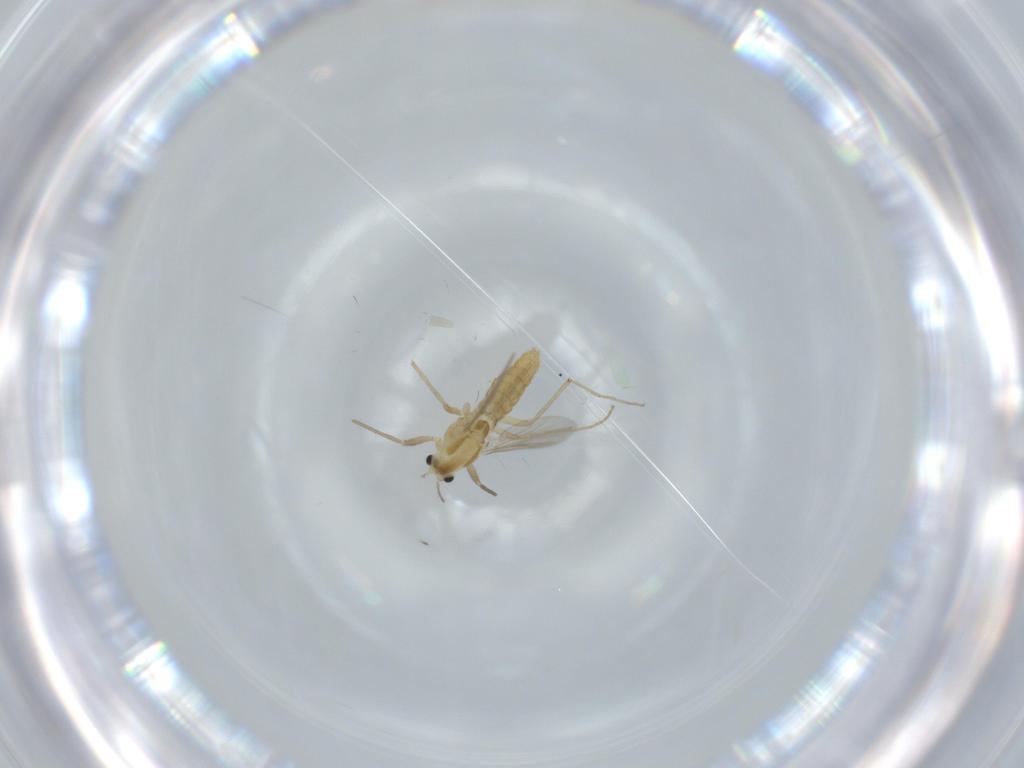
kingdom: Animalia
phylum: Arthropoda
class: Insecta
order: Diptera
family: Chironomidae
